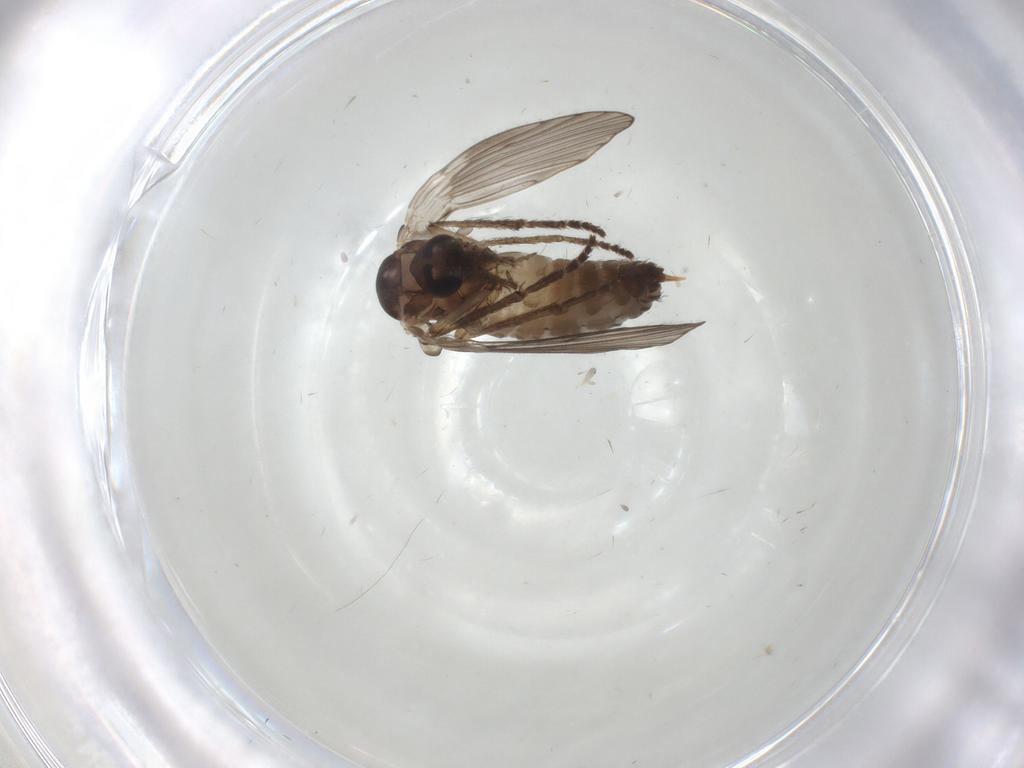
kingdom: Animalia
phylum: Arthropoda
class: Insecta
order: Diptera
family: Psychodidae
